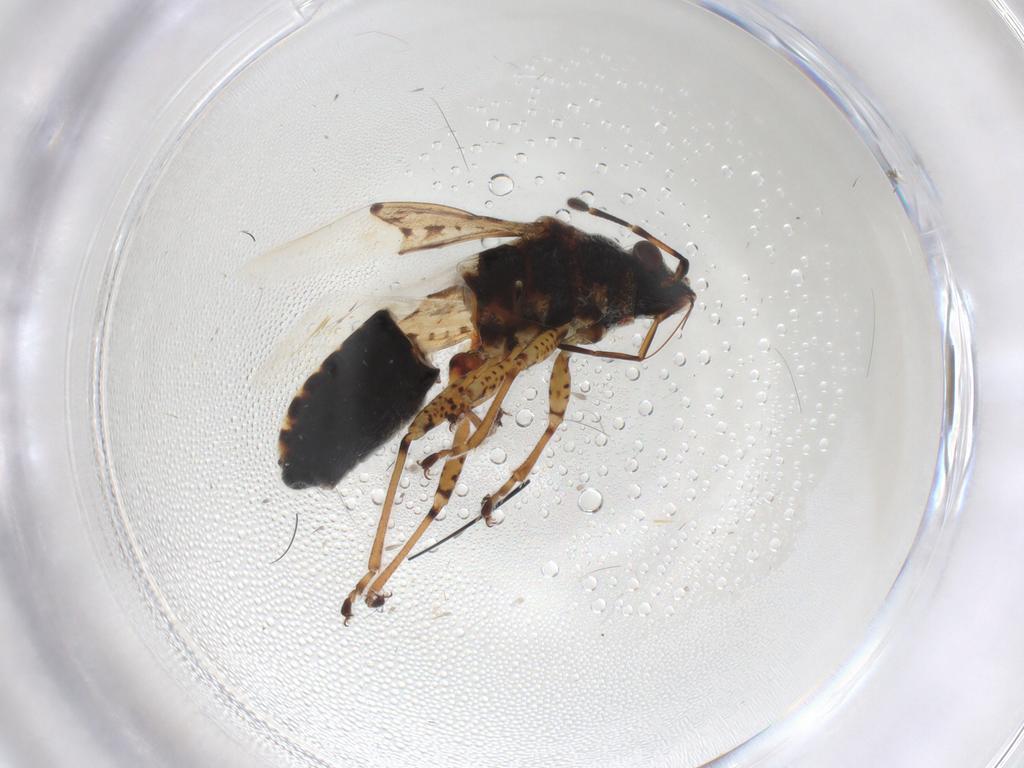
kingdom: Animalia
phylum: Arthropoda
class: Insecta
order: Hemiptera
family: Lygaeidae
